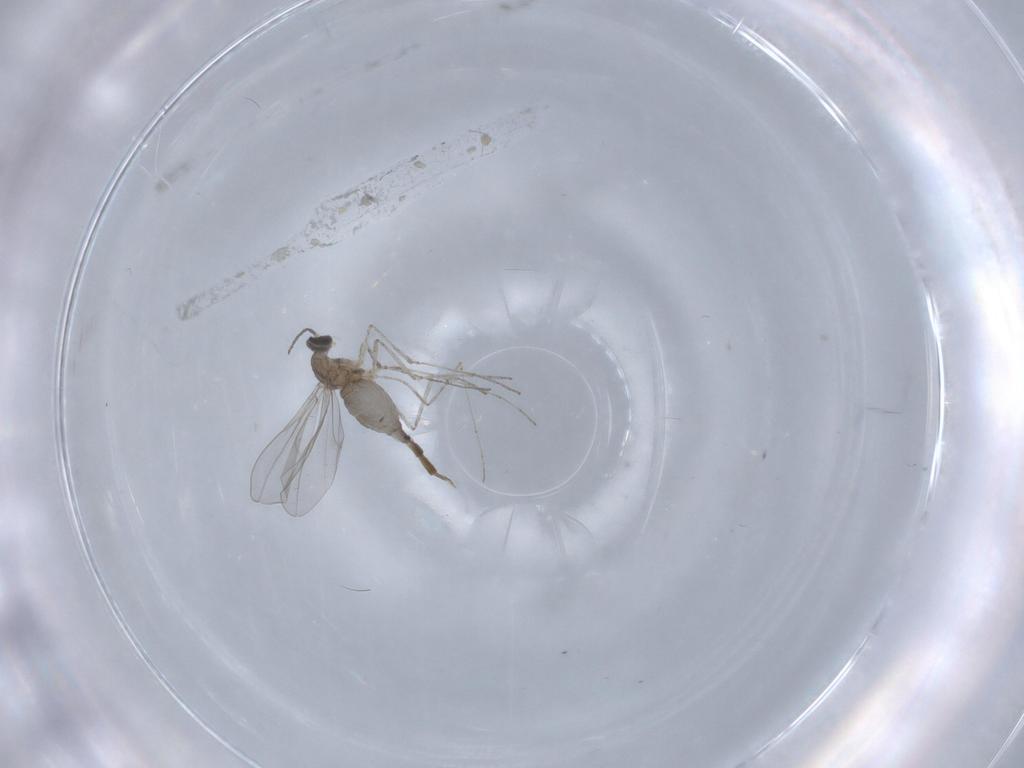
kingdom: Animalia
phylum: Arthropoda
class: Insecta
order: Diptera
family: Cecidomyiidae
